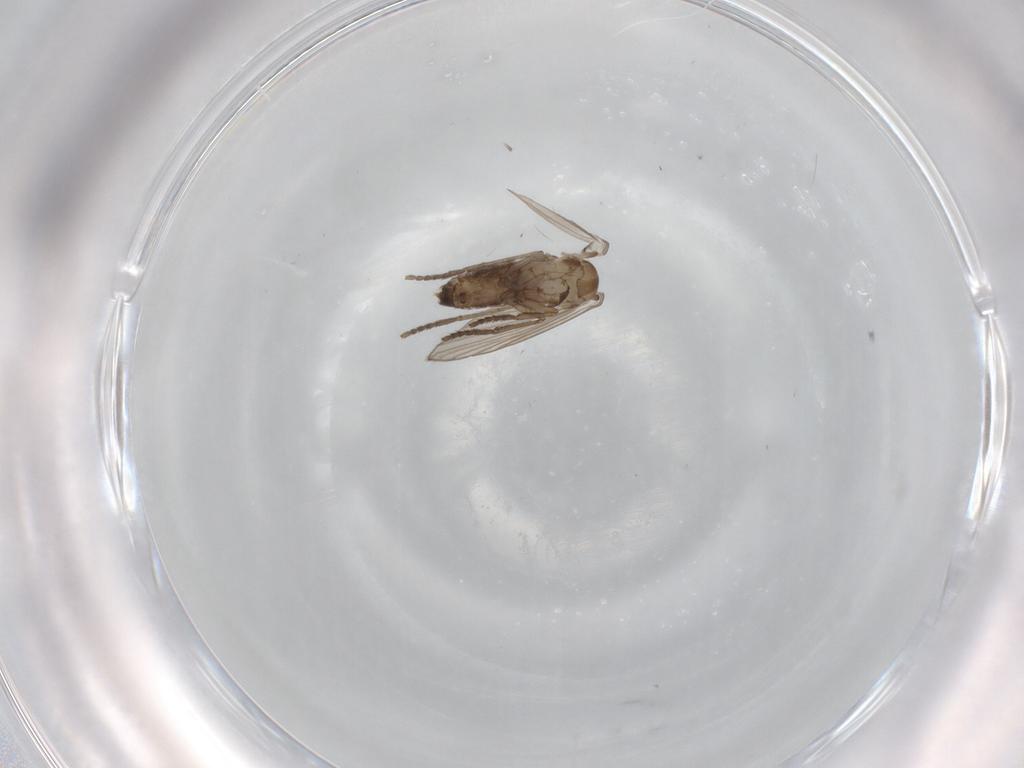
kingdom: Animalia
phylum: Arthropoda
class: Insecta
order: Diptera
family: Psychodidae
